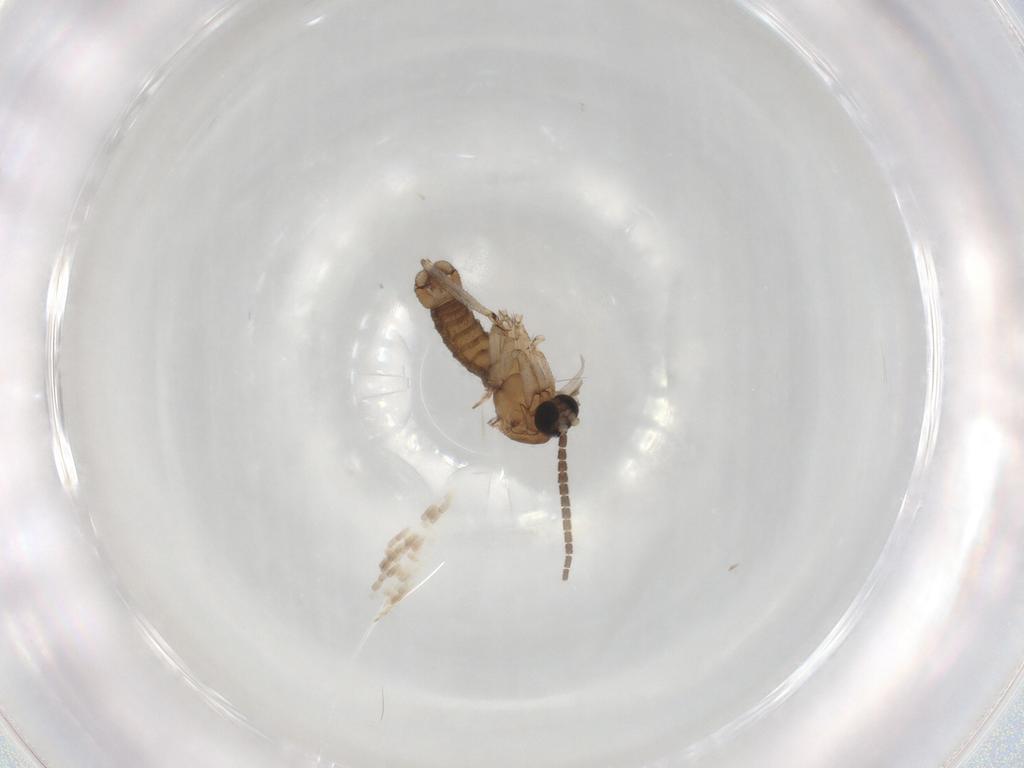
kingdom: Animalia
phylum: Arthropoda
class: Insecta
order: Diptera
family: Sciaridae
